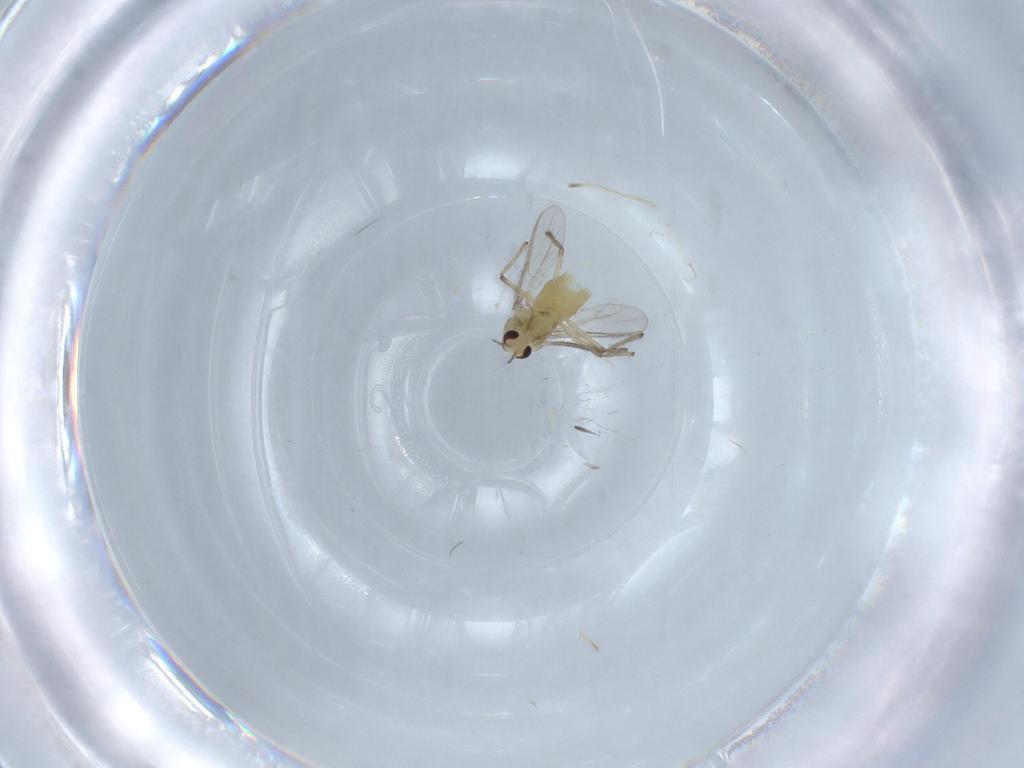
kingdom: Animalia
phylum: Arthropoda
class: Insecta
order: Diptera
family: Chironomidae
